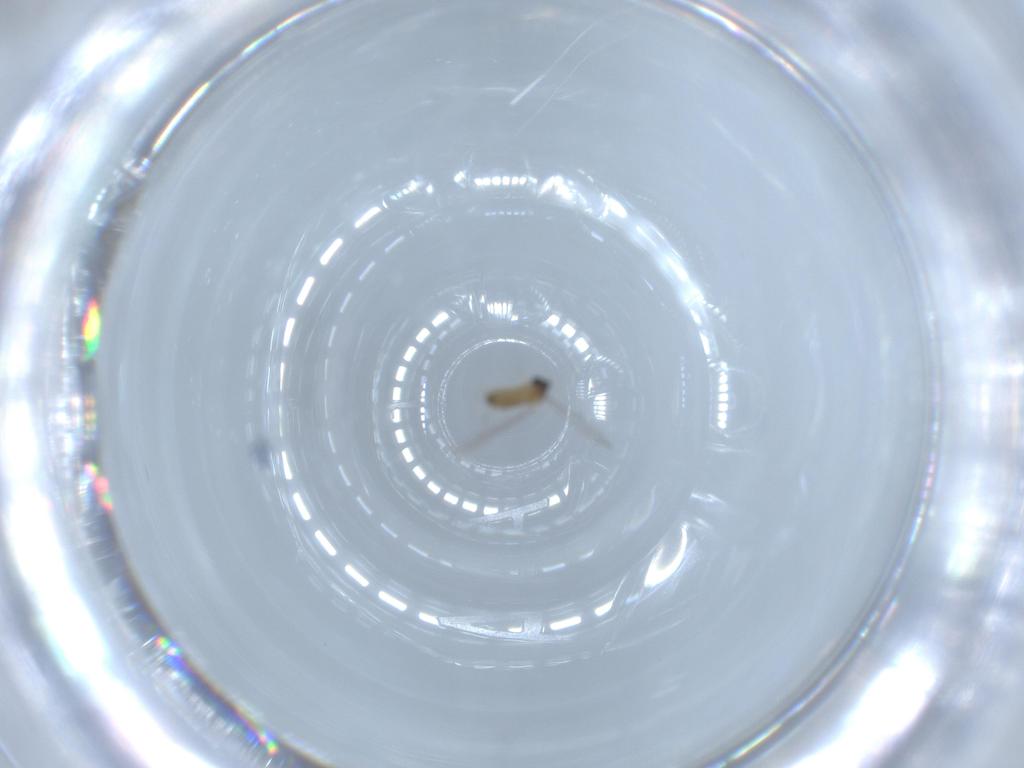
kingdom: Animalia
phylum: Arthropoda
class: Insecta
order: Diptera
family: Cecidomyiidae
